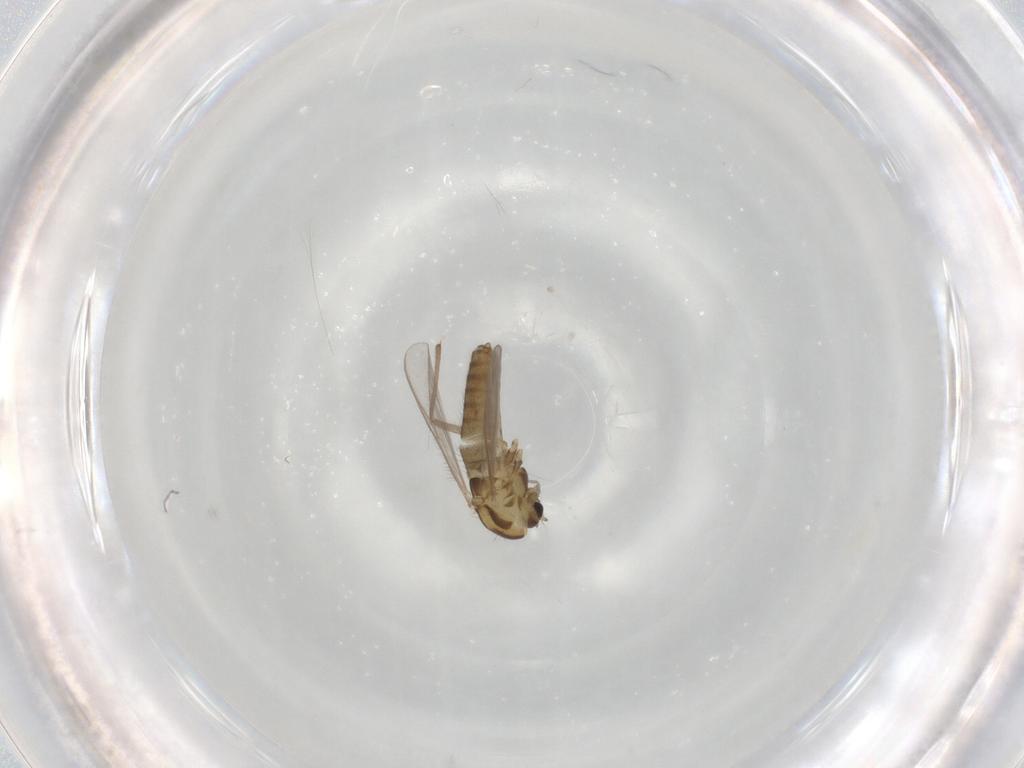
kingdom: Animalia
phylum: Arthropoda
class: Insecta
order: Diptera
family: Chironomidae
